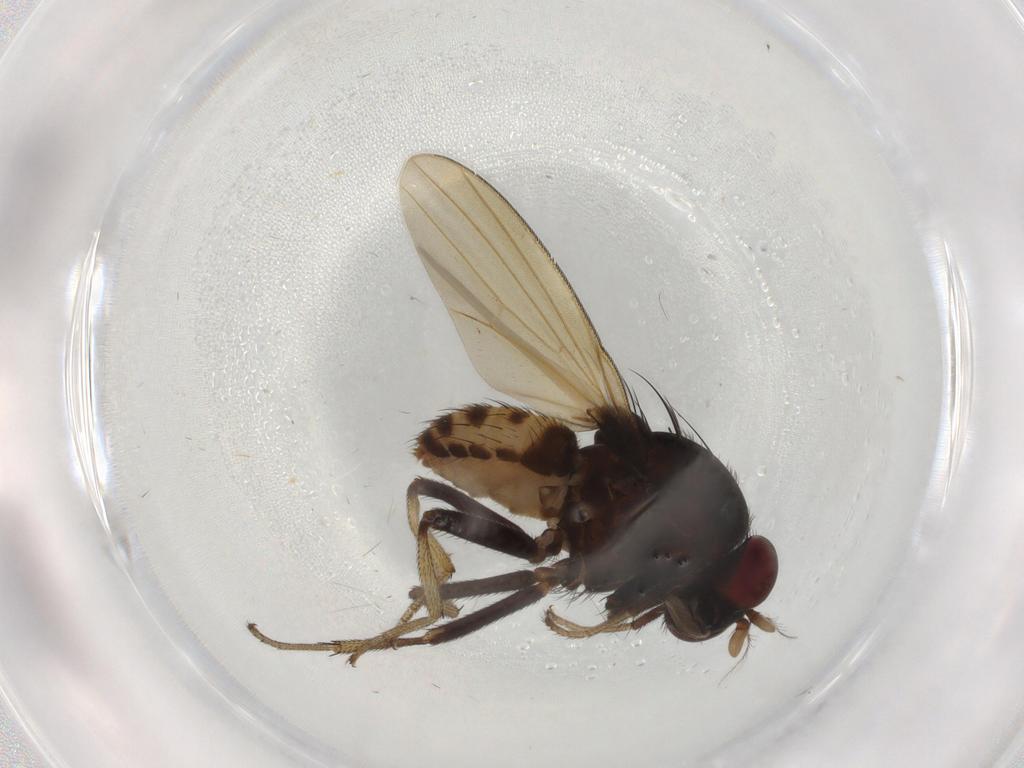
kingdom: Animalia
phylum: Arthropoda
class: Insecta
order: Diptera
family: Lauxaniidae
